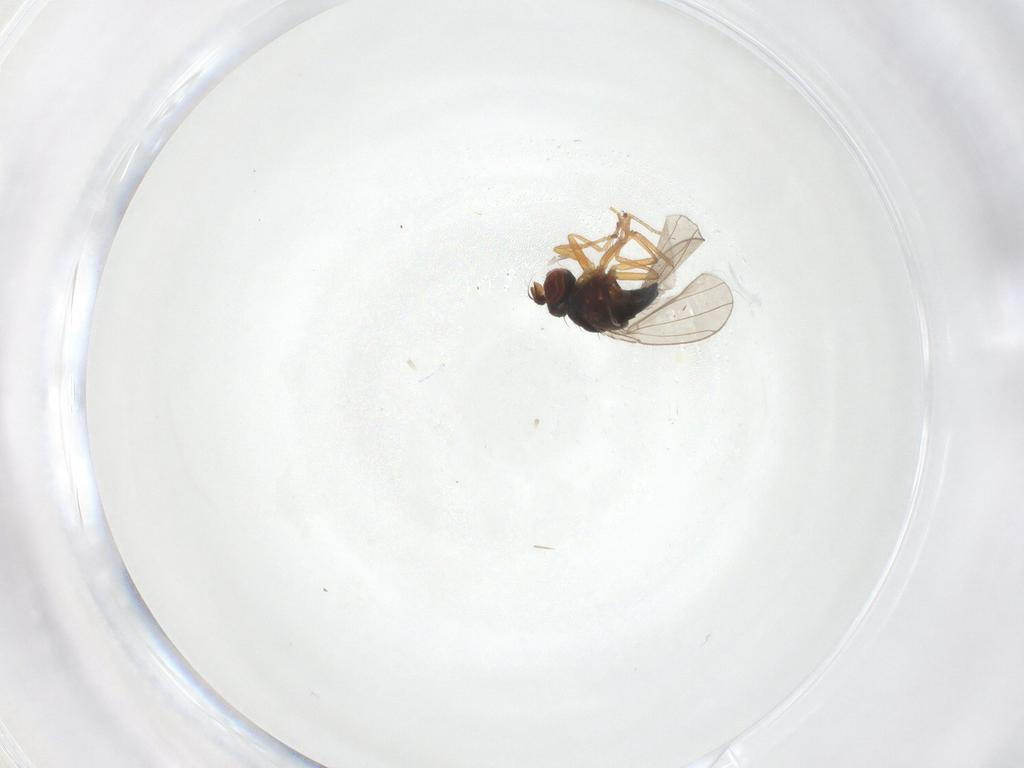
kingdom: Animalia
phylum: Arthropoda
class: Insecta
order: Diptera
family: Ephydridae
